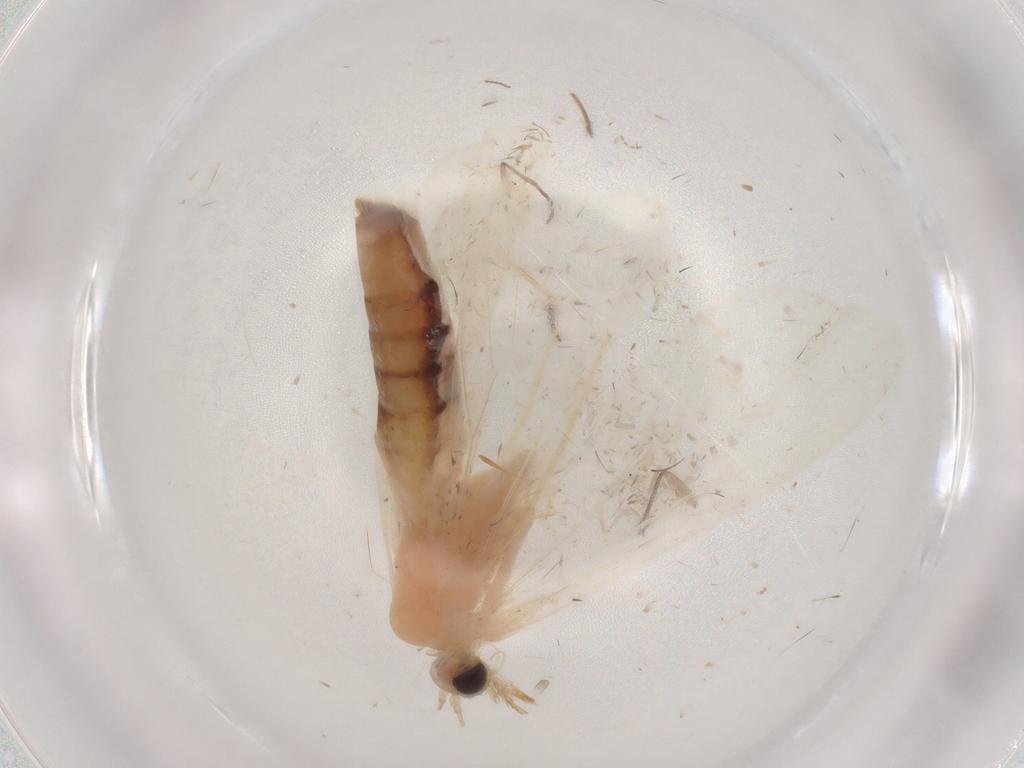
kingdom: Animalia
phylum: Arthropoda
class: Insecta
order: Lepidoptera
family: Crambidae
